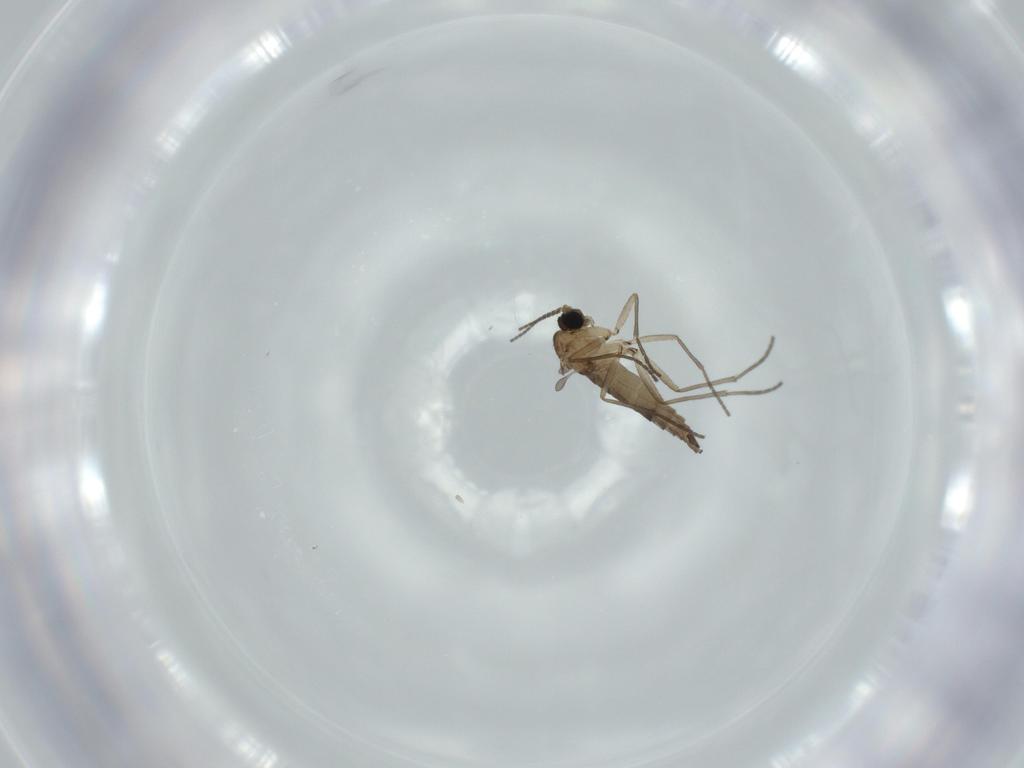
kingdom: Animalia
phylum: Arthropoda
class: Insecta
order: Diptera
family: Sciaridae
